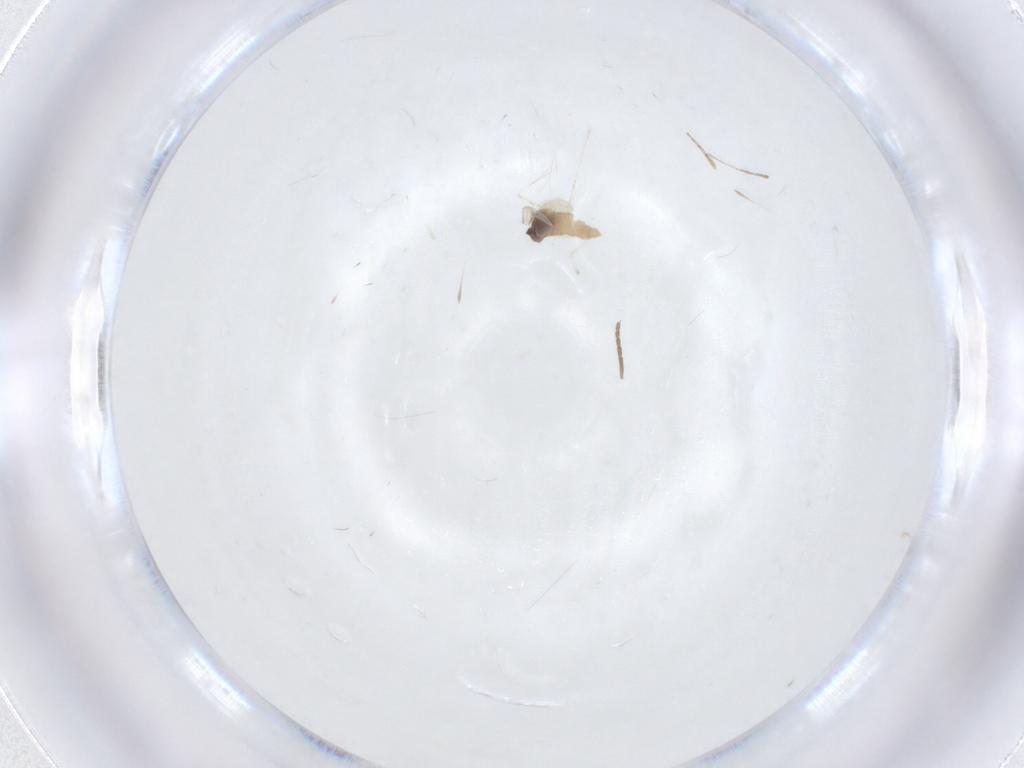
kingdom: Animalia
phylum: Arthropoda
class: Insecta
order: Diptera
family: Cecidomyiidae
